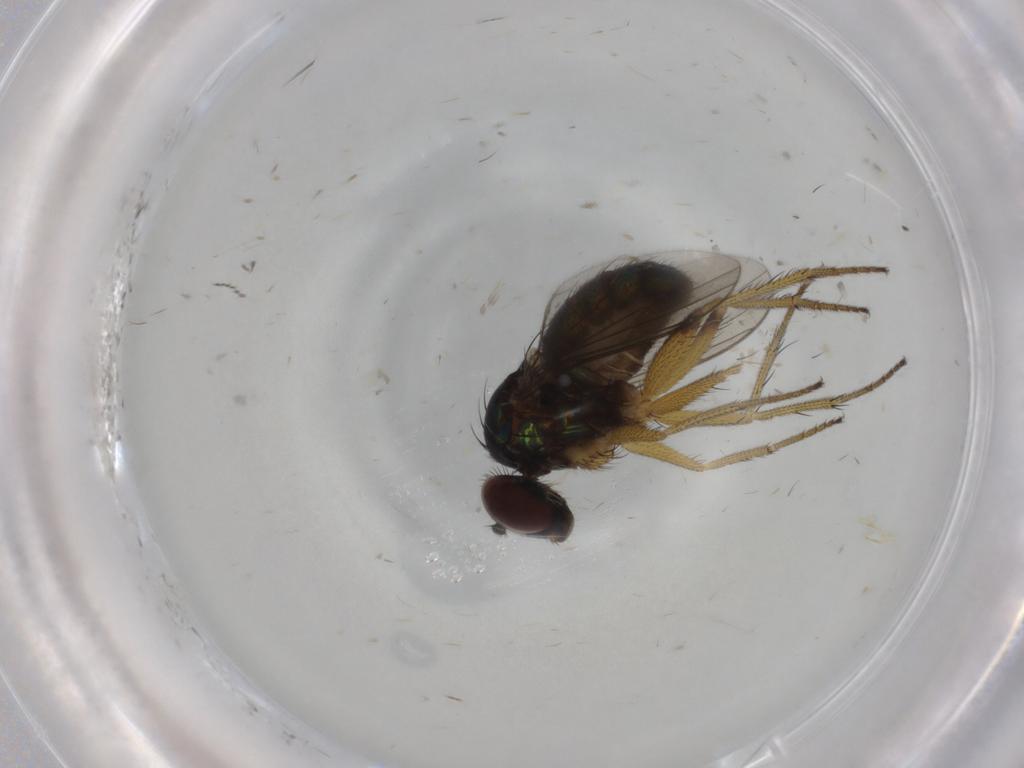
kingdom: Animalia
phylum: Arthropoda
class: Insecta
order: Diptera
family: Dolichopodidae
